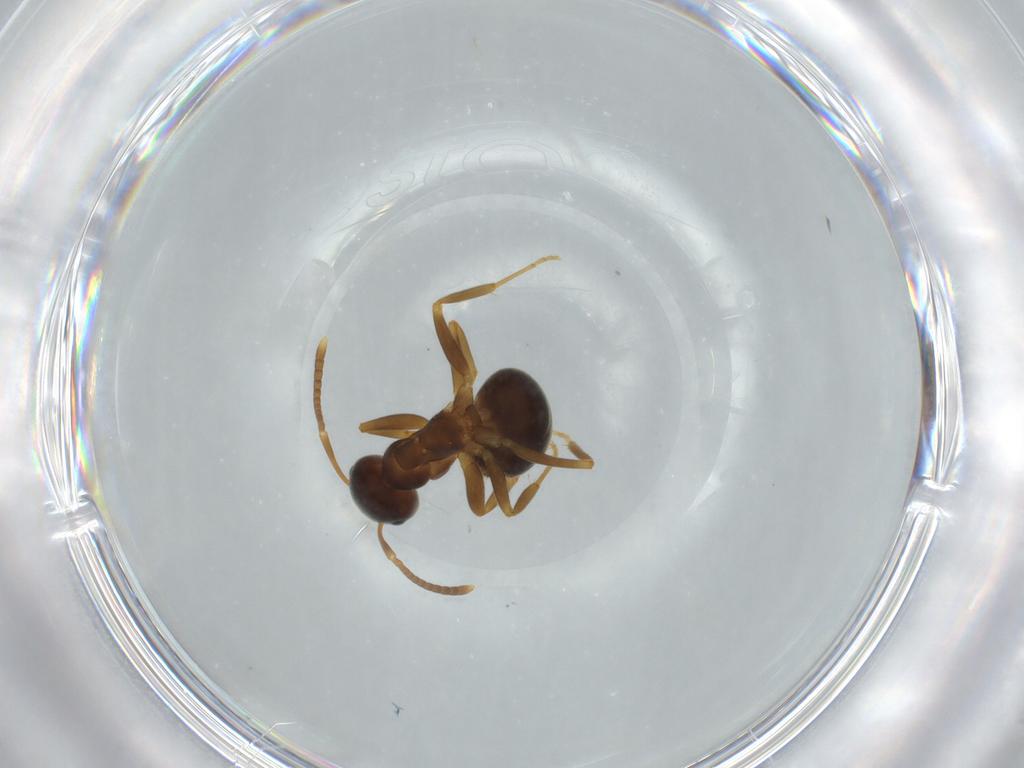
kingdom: Animalia
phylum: Arthropoda
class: Insecta
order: Hymenoptera
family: Formicidae
